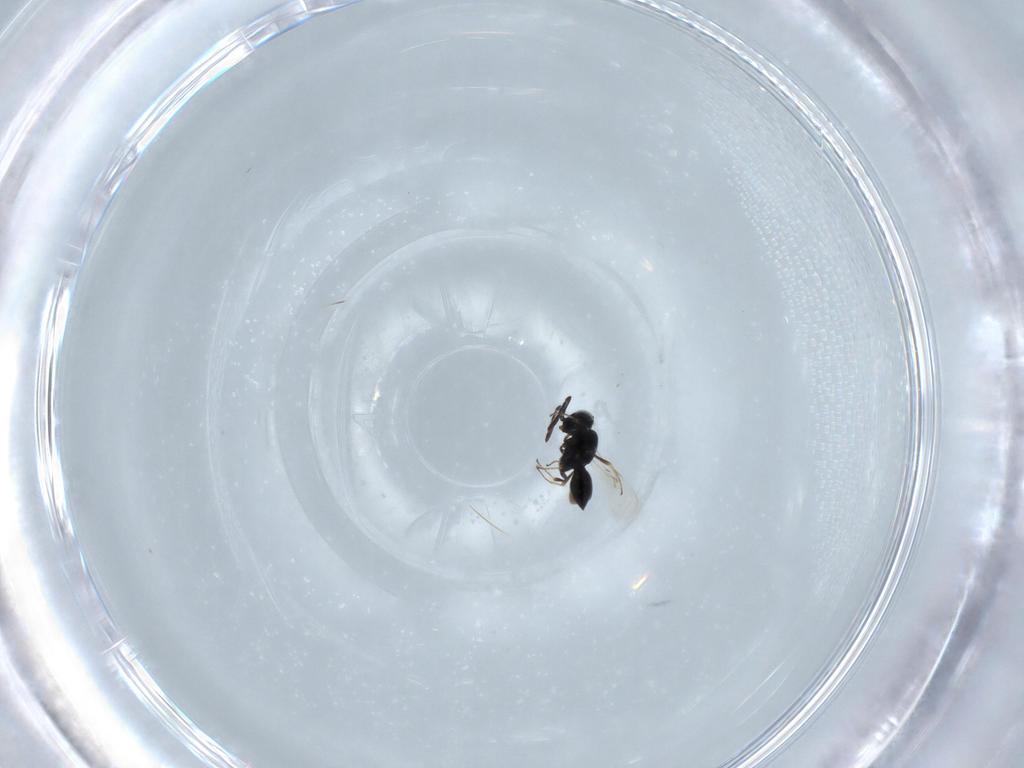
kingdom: Animalia
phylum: Arthropoda
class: Insecta
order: Hymenoptera
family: Scelionidae
